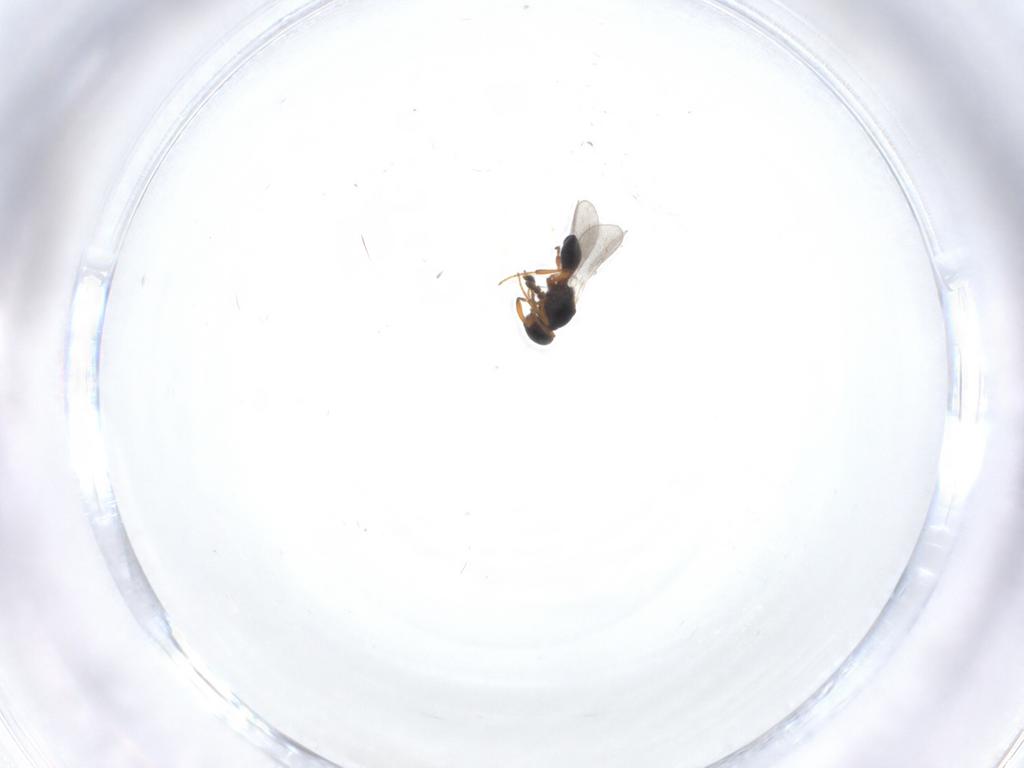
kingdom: Animalia
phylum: Arthropoda
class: Insecta
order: Hymenoptera
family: Platygastridae
